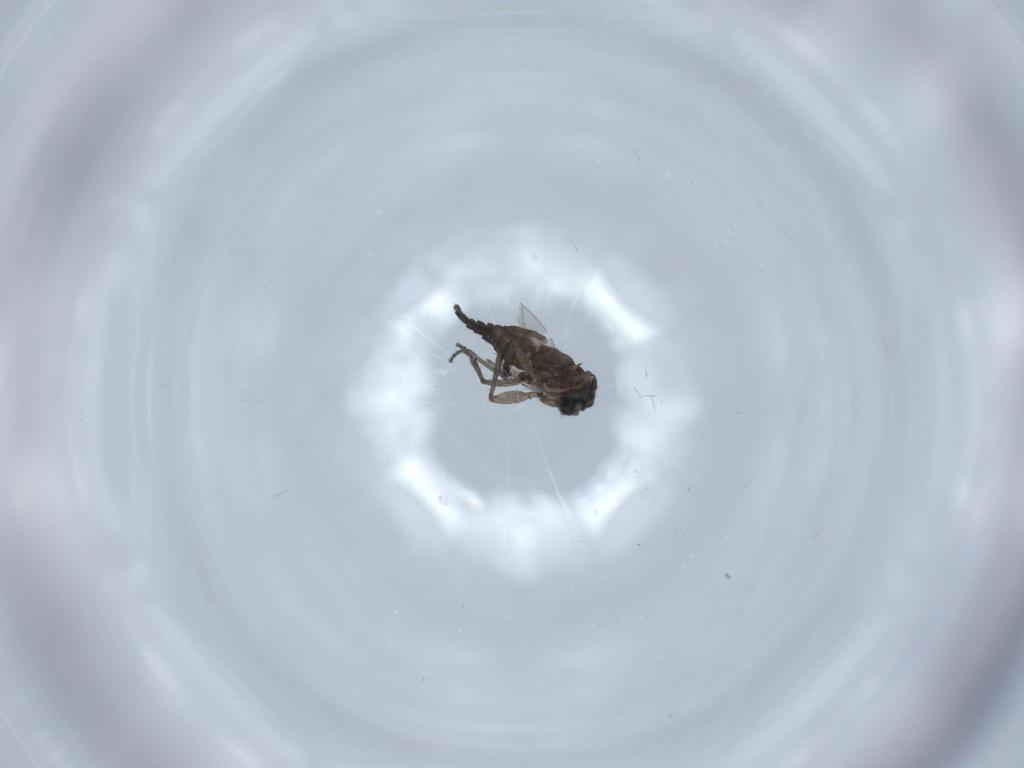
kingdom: Animalia
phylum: Arthropoda
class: Insecta
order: Diptera
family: Sciaridae
